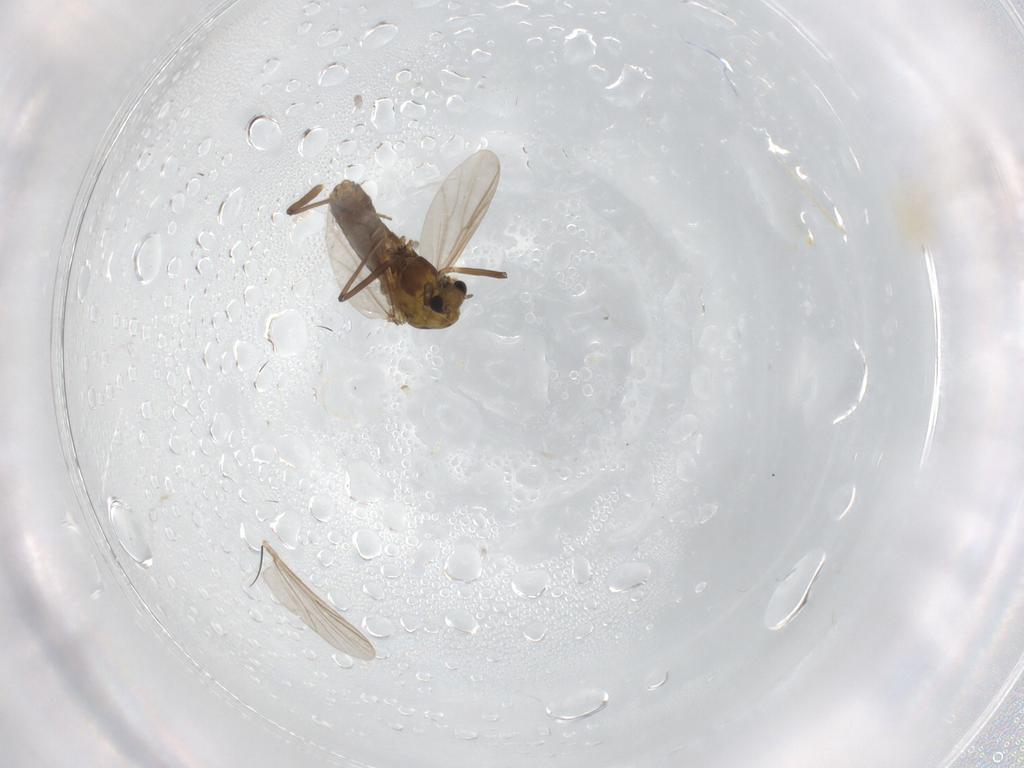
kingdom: Animalia
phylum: Arthropoda
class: Insecta
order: Diptera
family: Chironomidae
